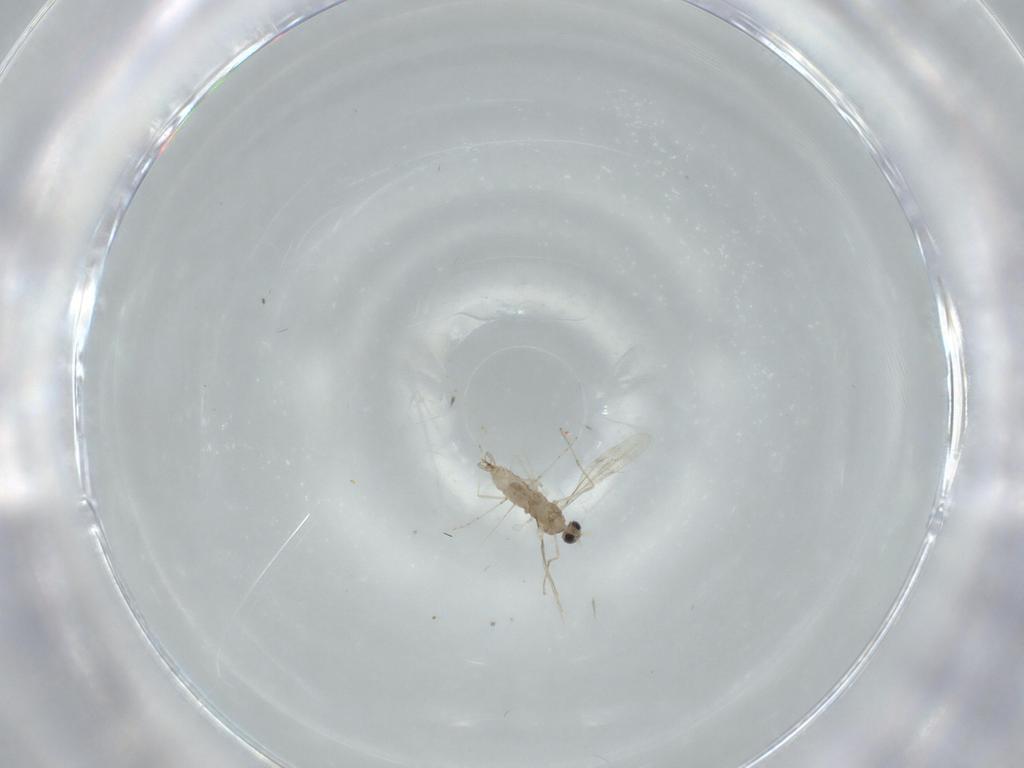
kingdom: Animalia
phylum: Arthropoda
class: Insecta
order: Diptera
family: Cecidomyiidae
